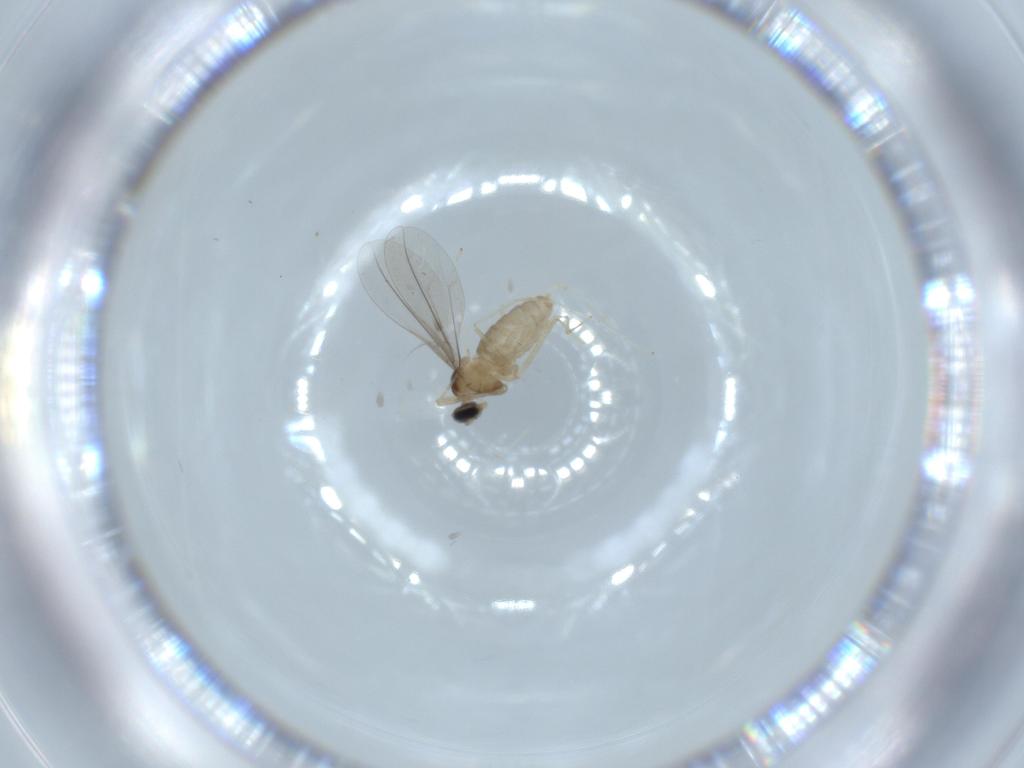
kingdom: Animalia
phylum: Arthropoda
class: Insecta
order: Diptera
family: Cecidomyiidae
